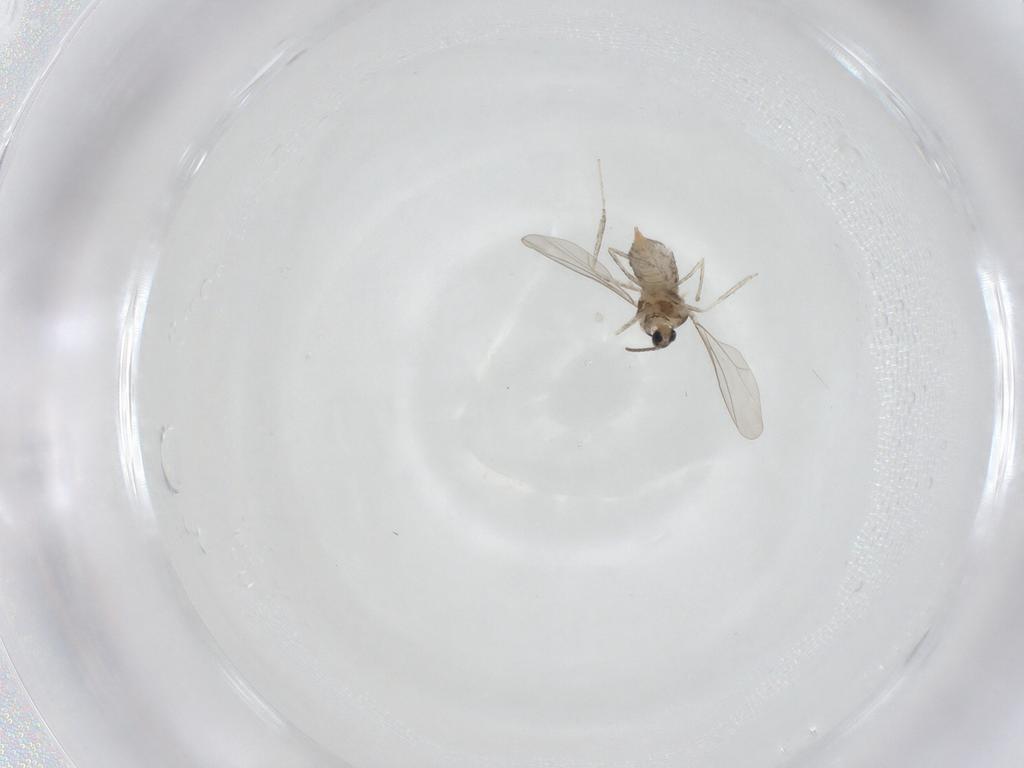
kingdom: Animalia
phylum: Arthropoda
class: Insecta
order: Diptera
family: Cecidomyiidae
